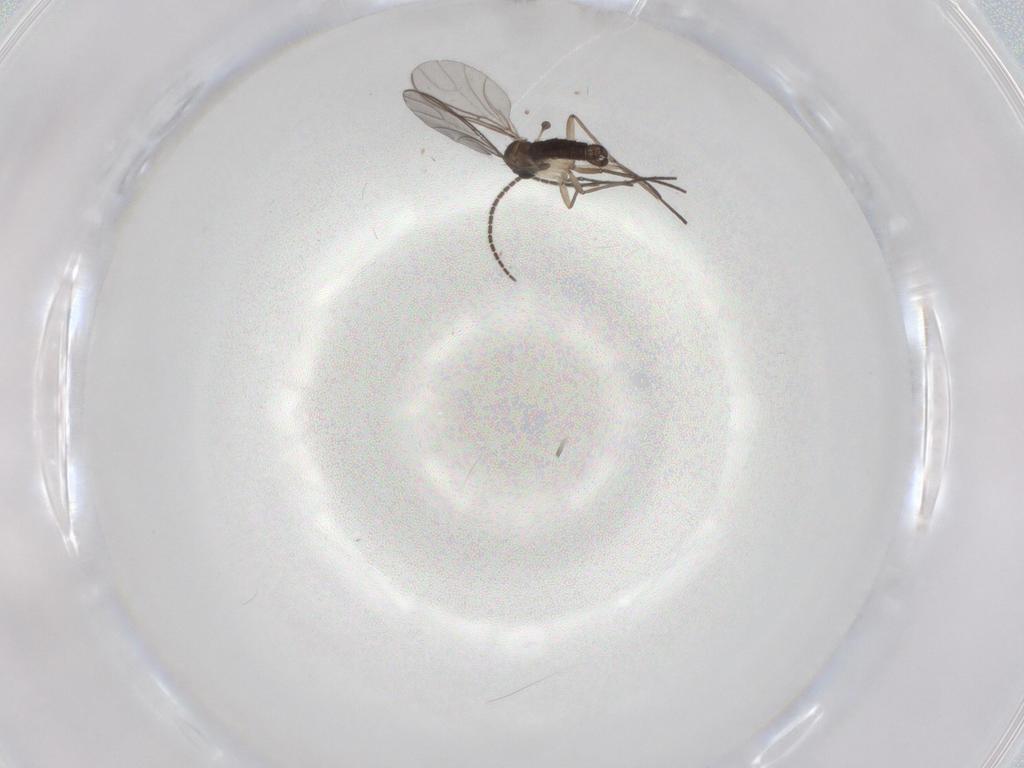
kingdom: Animalia
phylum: Arthropoda
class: Insecta
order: Diptera
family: Sciaridae
